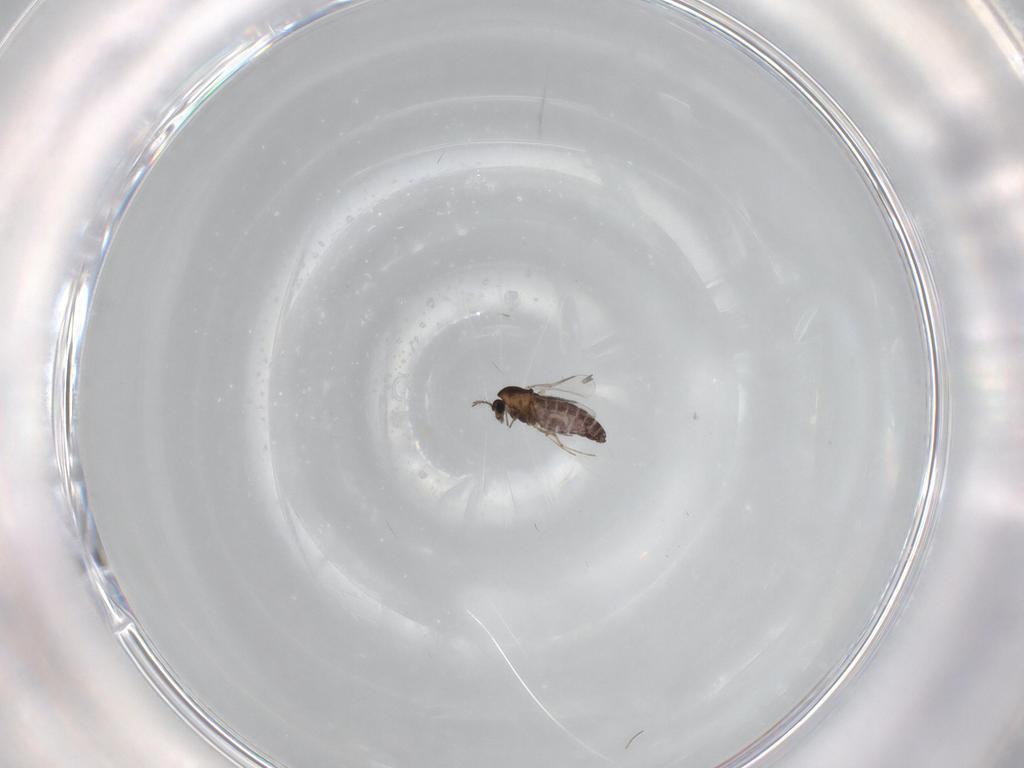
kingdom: Animalia
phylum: Arthropoda
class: Insecta
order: Diptera
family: Chironomidae
